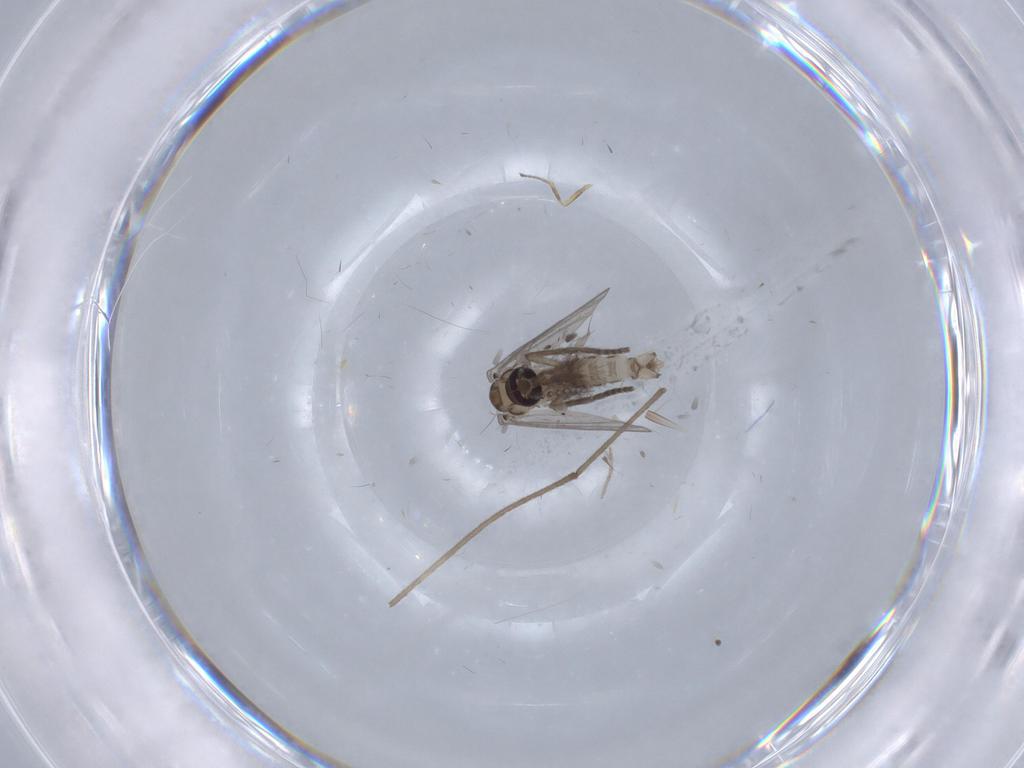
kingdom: Animalia
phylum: Arthropoda
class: Insecta
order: Diptera
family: Psychodidae
